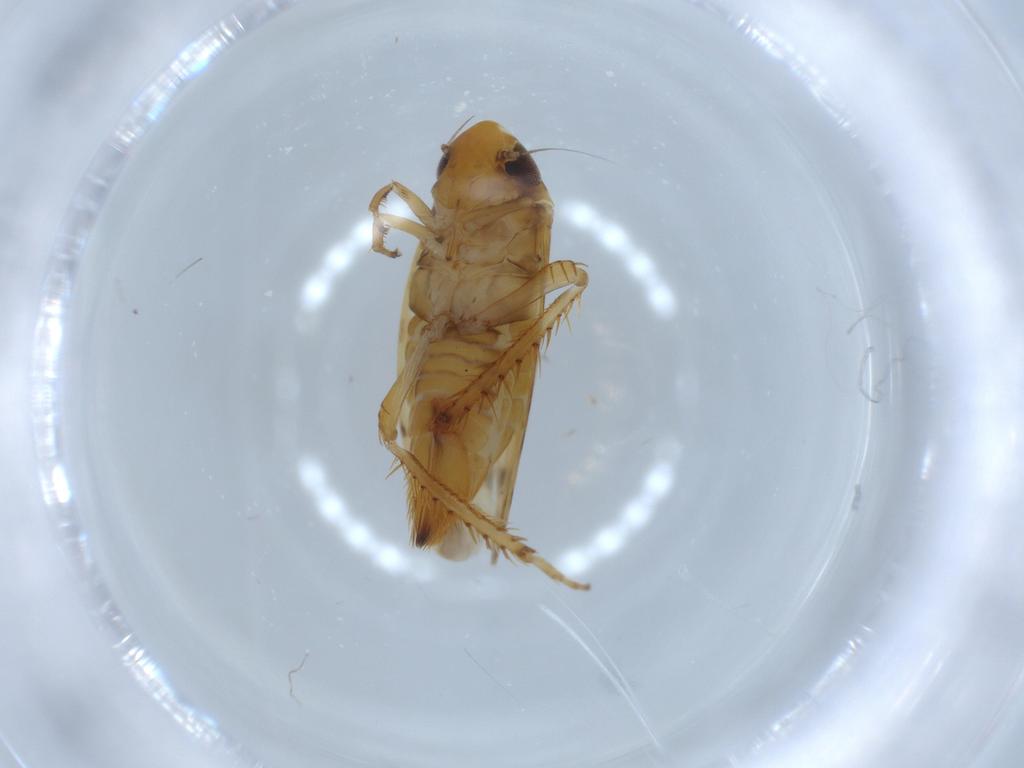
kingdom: Animalia
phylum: Arthropoda
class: Insecta
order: Hemiptera
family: Cicadellidae
